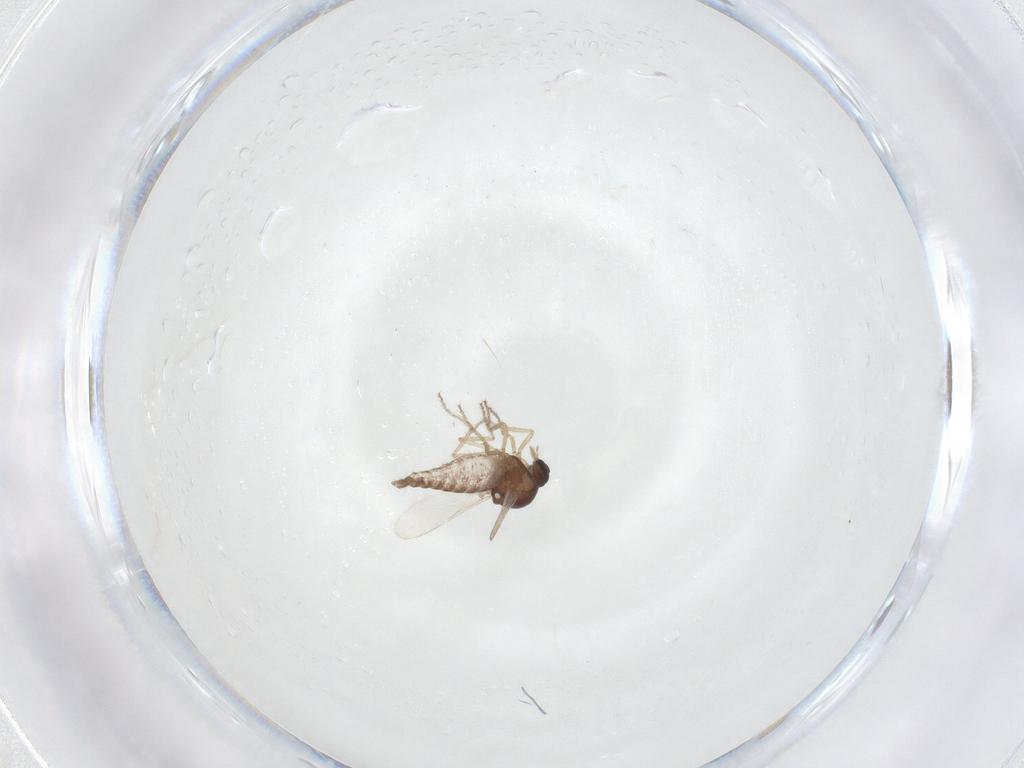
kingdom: Animalia
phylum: Arthropoda
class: Insecta
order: Diptera
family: Ceratopogonidae
